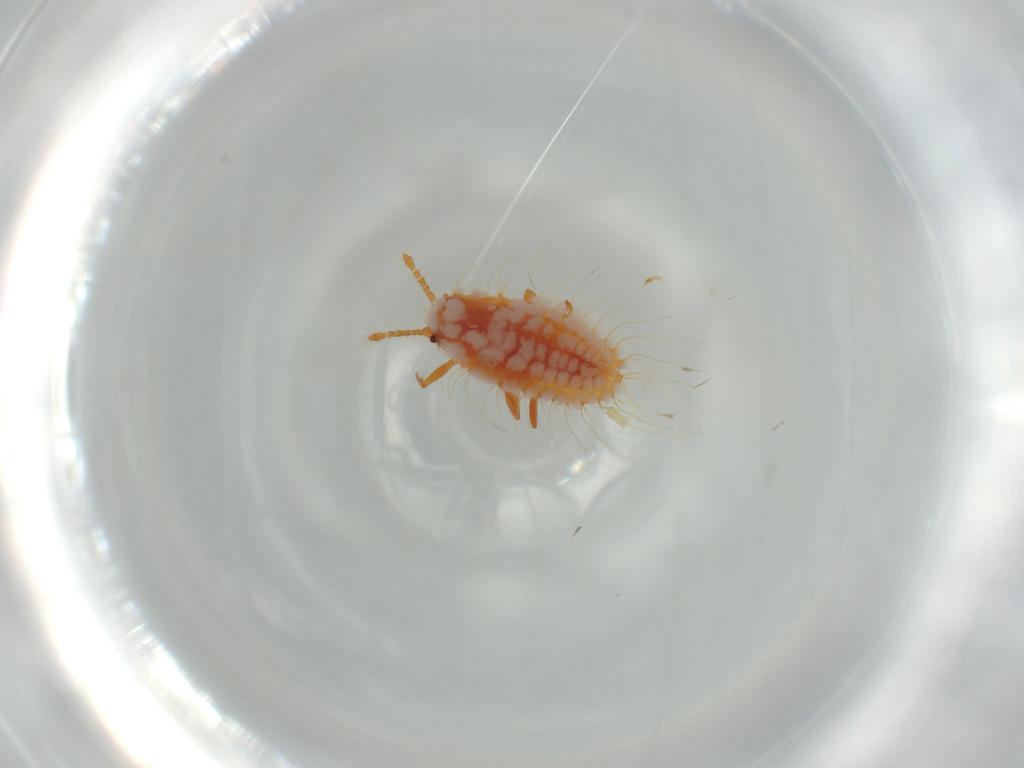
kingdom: Animalia
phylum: Arthropoda
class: Insecta
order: Hemiptera
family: Cicadellidae
